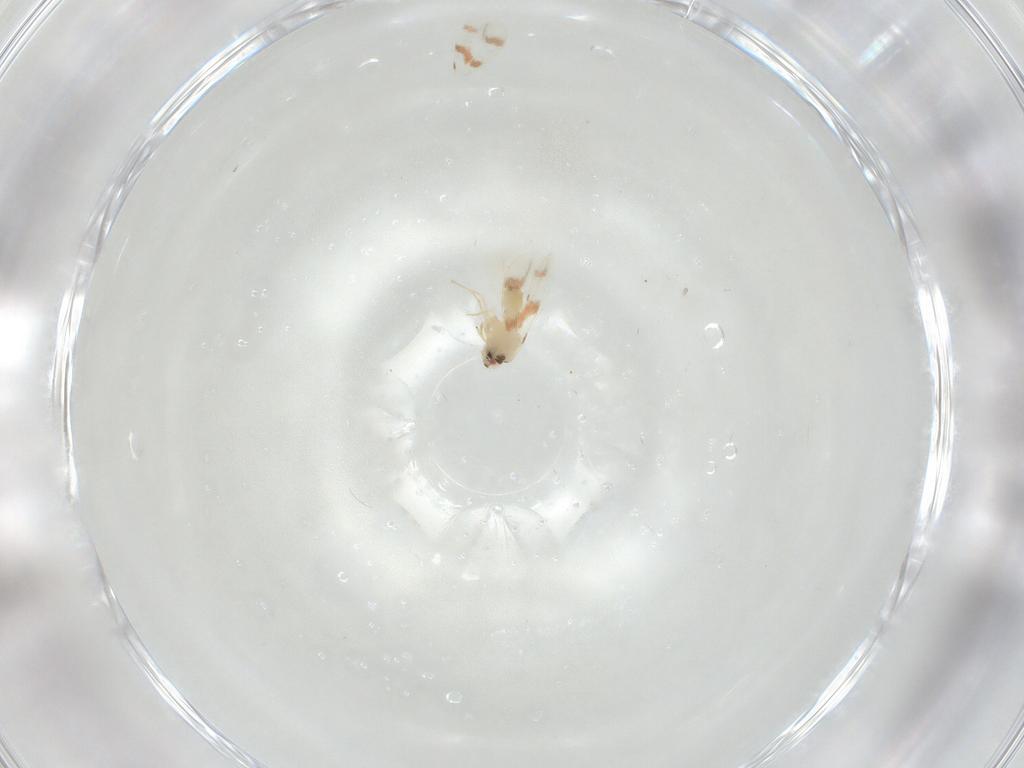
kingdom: Animalia
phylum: Arthropoda
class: Insecta
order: Hemiptera
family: Aleyrodidae
